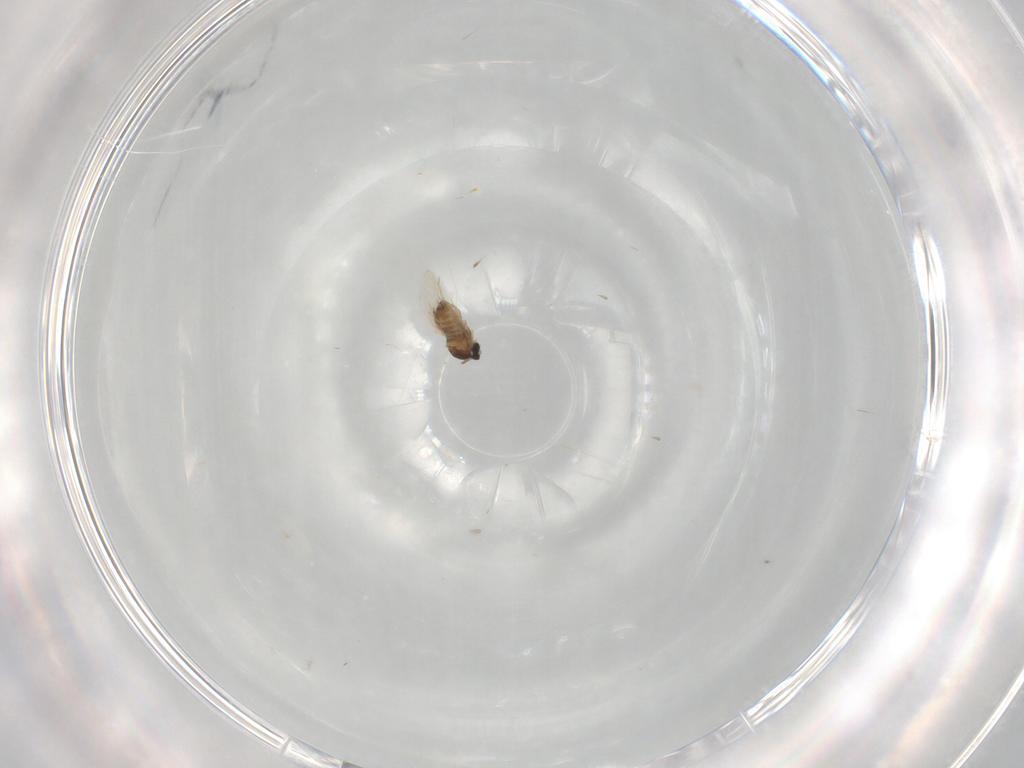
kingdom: Animalia
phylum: Arthropoda
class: Insecta
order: Diptera
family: Cecidomyiidae
